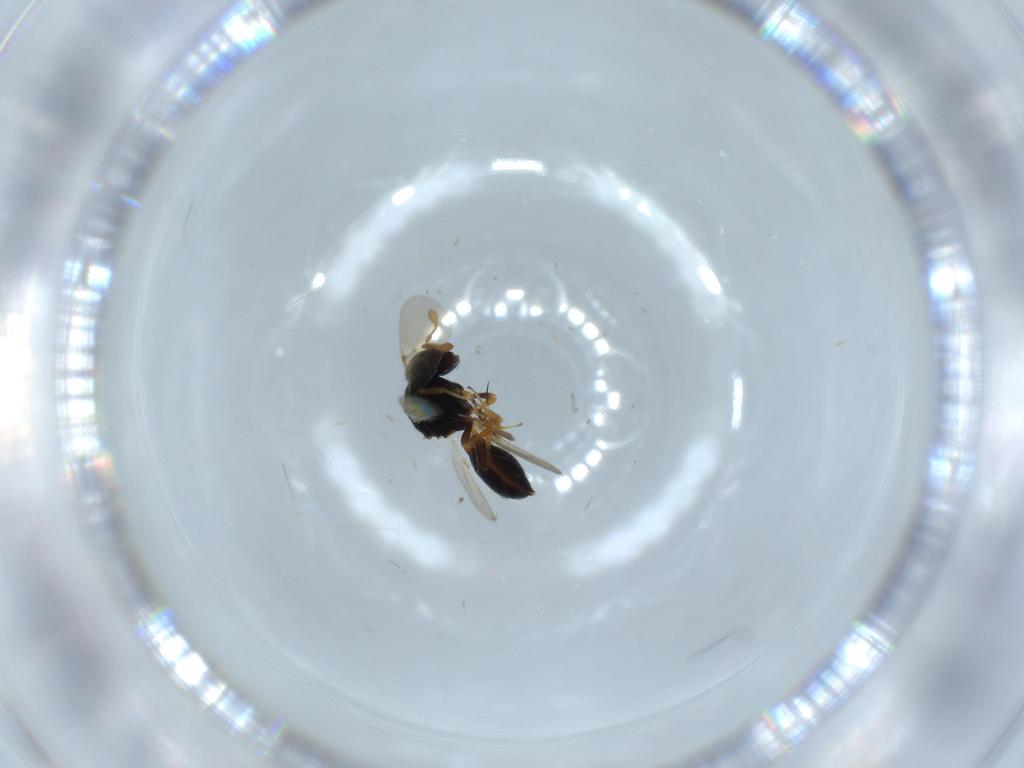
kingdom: Animalia
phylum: Arthropoda
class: Insecta
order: Hymenoptera
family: Scelionidae
